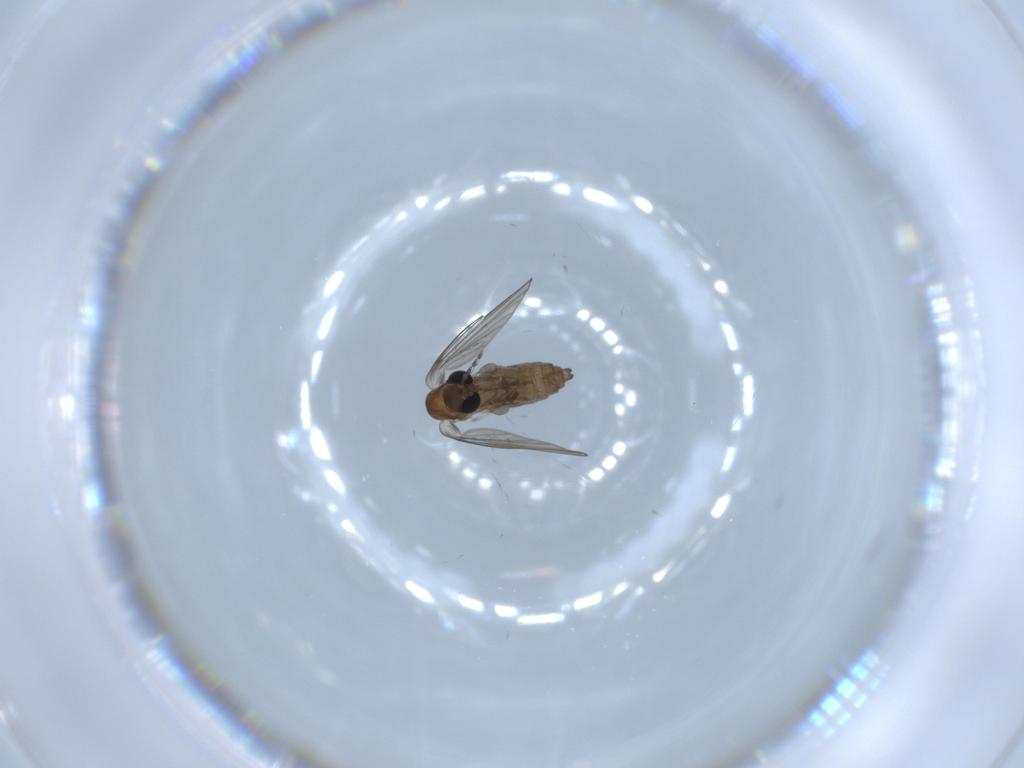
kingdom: Animalia
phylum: Arthropoda
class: Insecta
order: Diptera
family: Psychodidae
